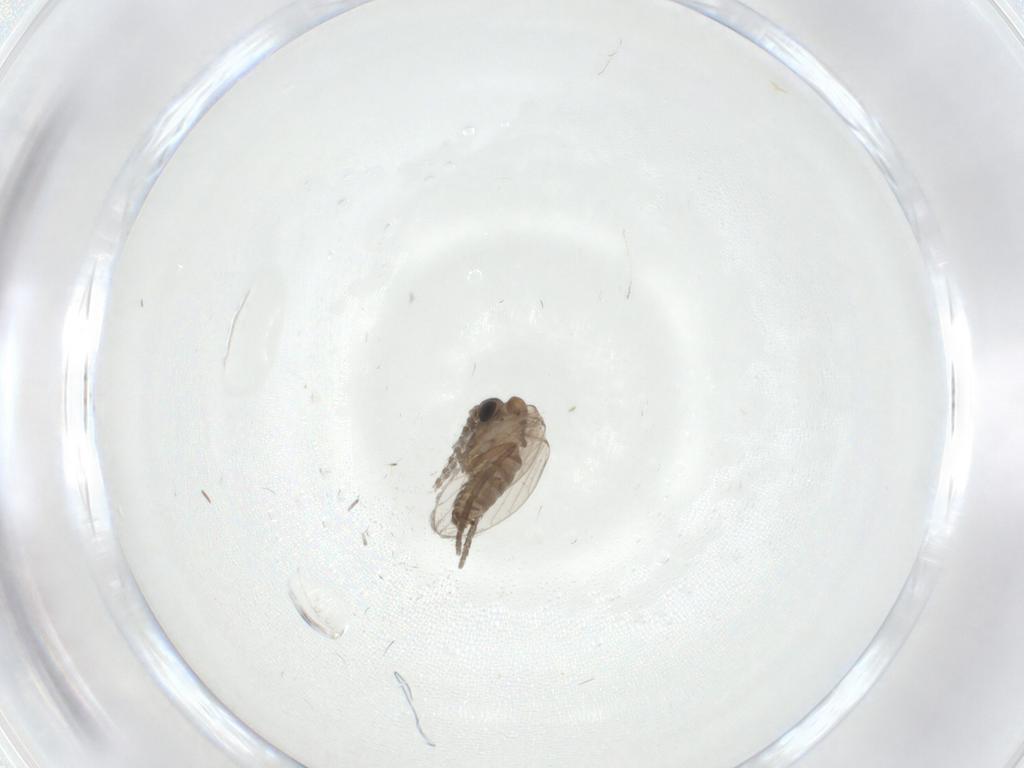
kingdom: Animalia
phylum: Arthropoda
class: Insecta
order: Diptera
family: Psychodidae
